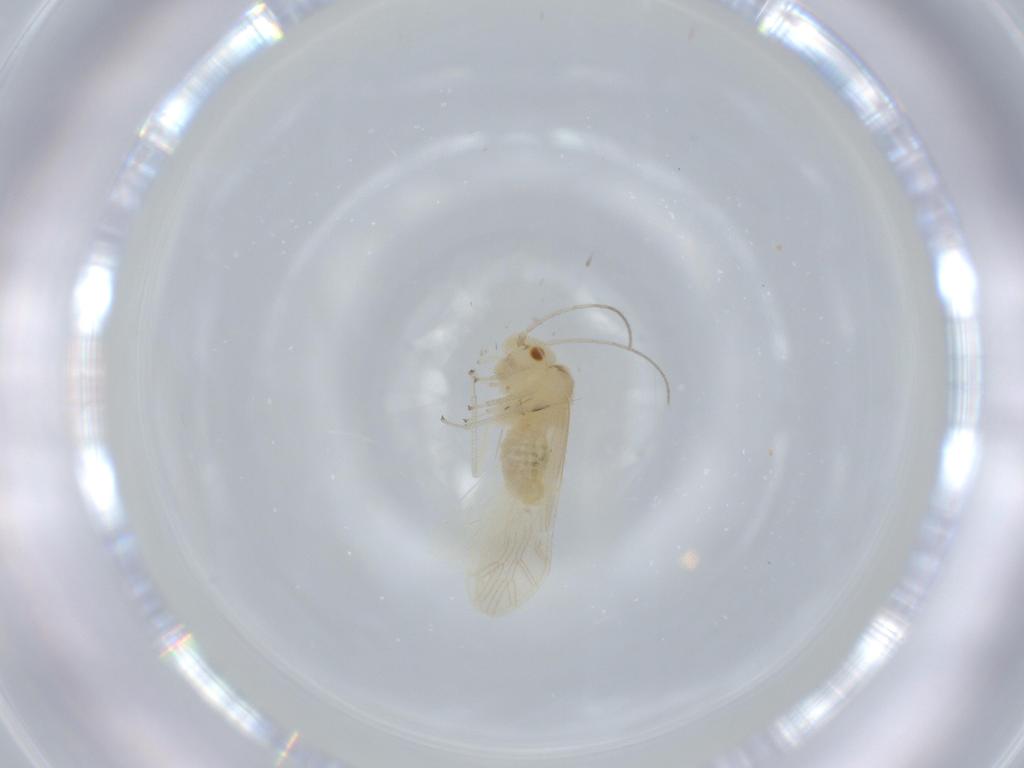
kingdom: Animalia
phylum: Arthropoda
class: Insecta
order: Psocodea
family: Caeciliusidae
